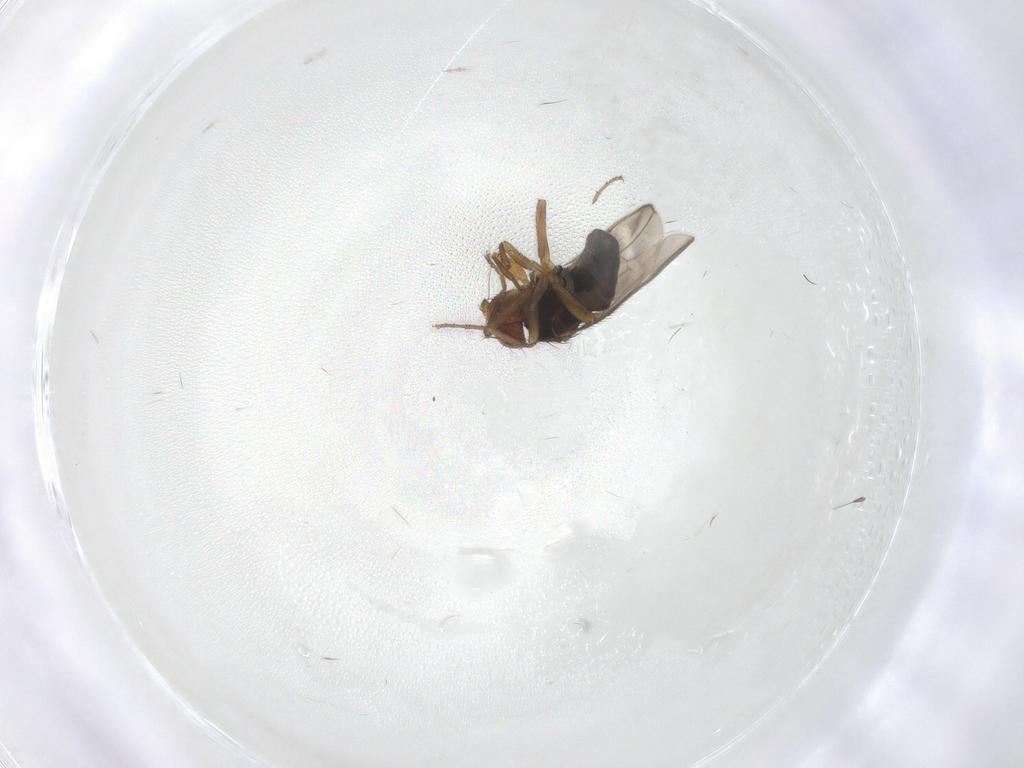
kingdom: Animalia
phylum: Arthropoda
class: Insecta
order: Diptera
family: Sphaeroceridae
